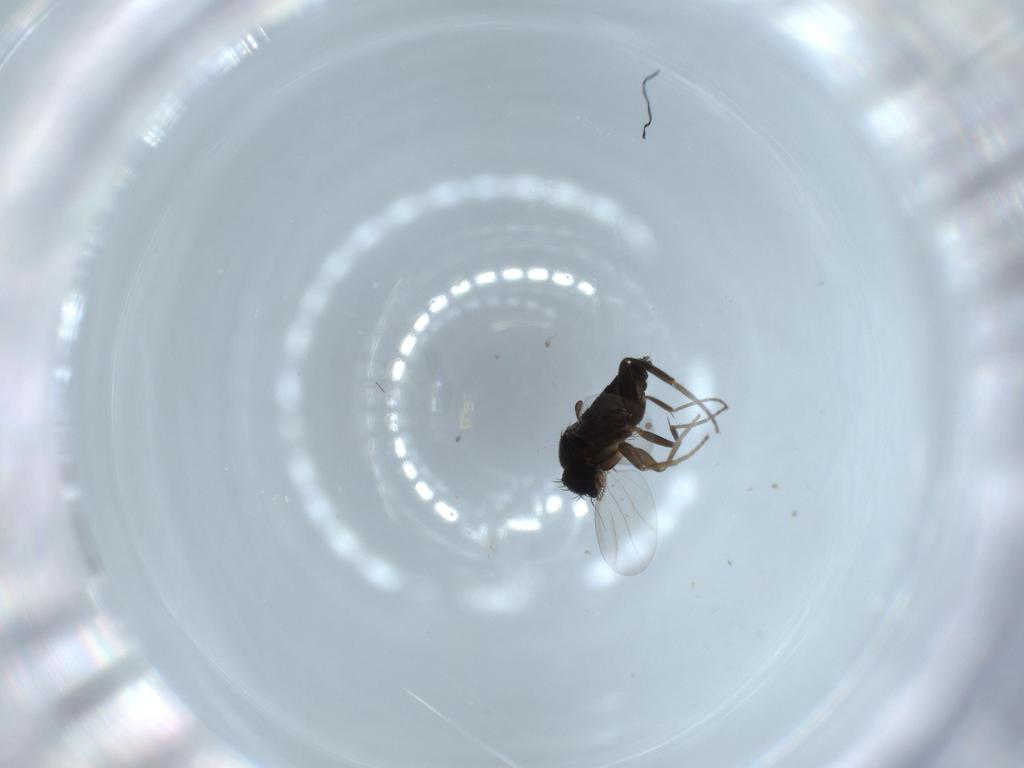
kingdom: Animalia
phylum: Arthropoda
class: Insecta
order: Diptera
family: Phoridae
